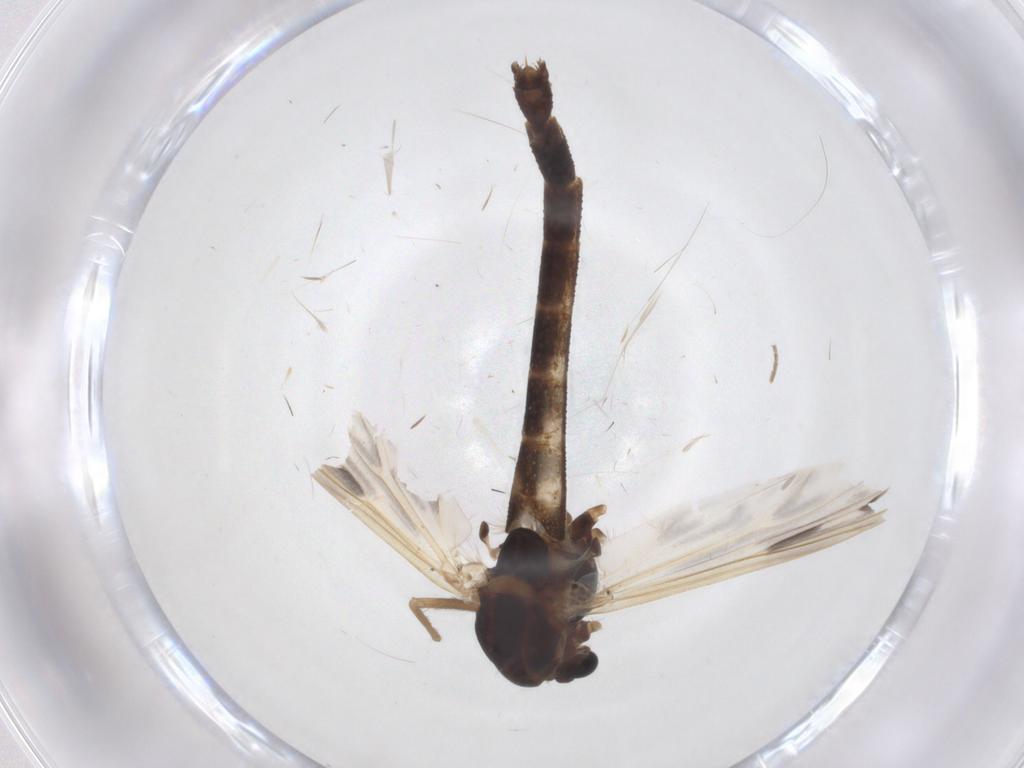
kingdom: Animalia
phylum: Arthropoda
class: Insecta
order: Diptera
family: Chironomidae
